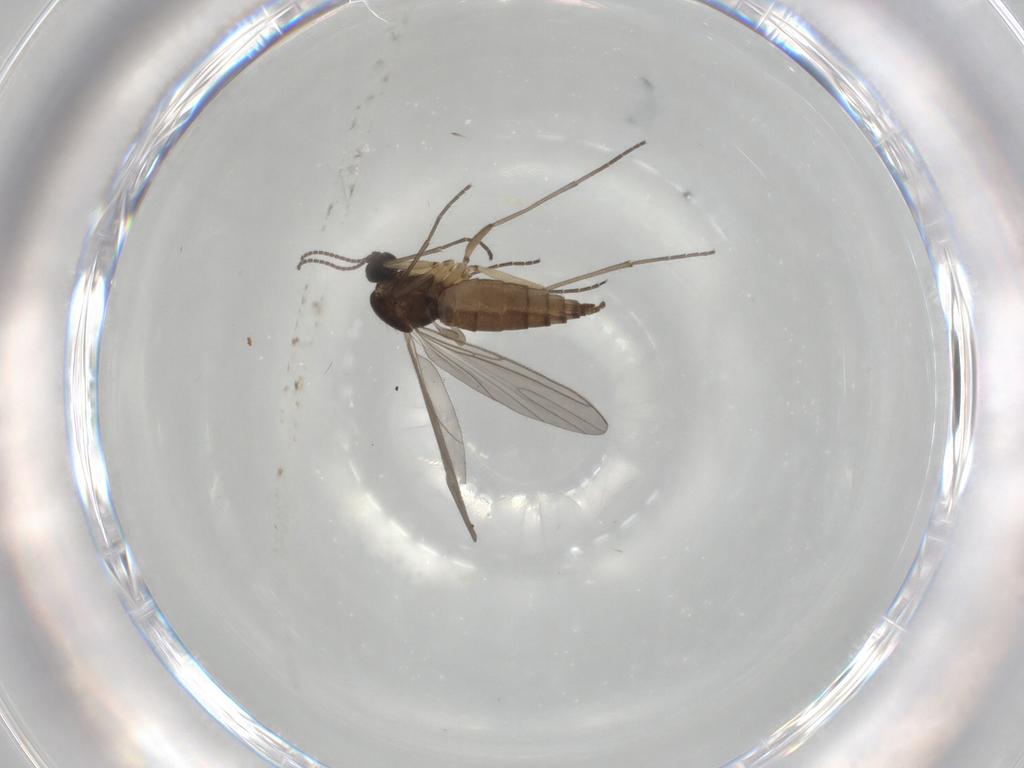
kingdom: Animalia
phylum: Arthropoda
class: Insecta
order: Diptera
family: Sciaridae
